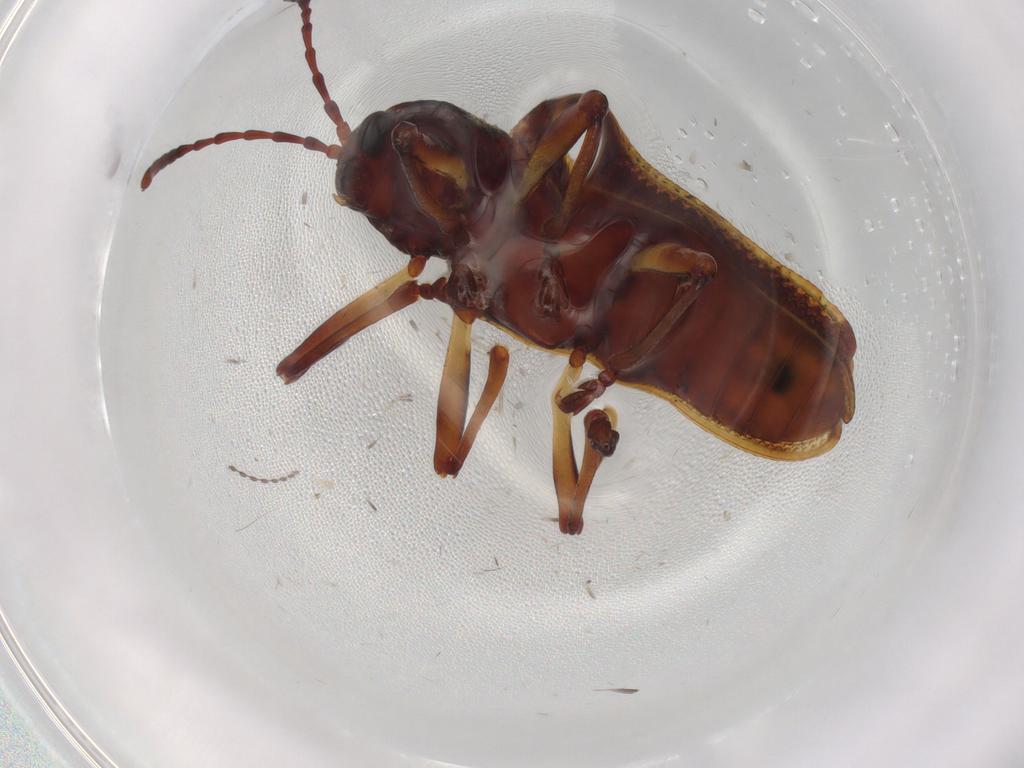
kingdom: Animalia
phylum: Arthropoda
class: Insecta
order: Coleoptera
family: Chrysomelidae
